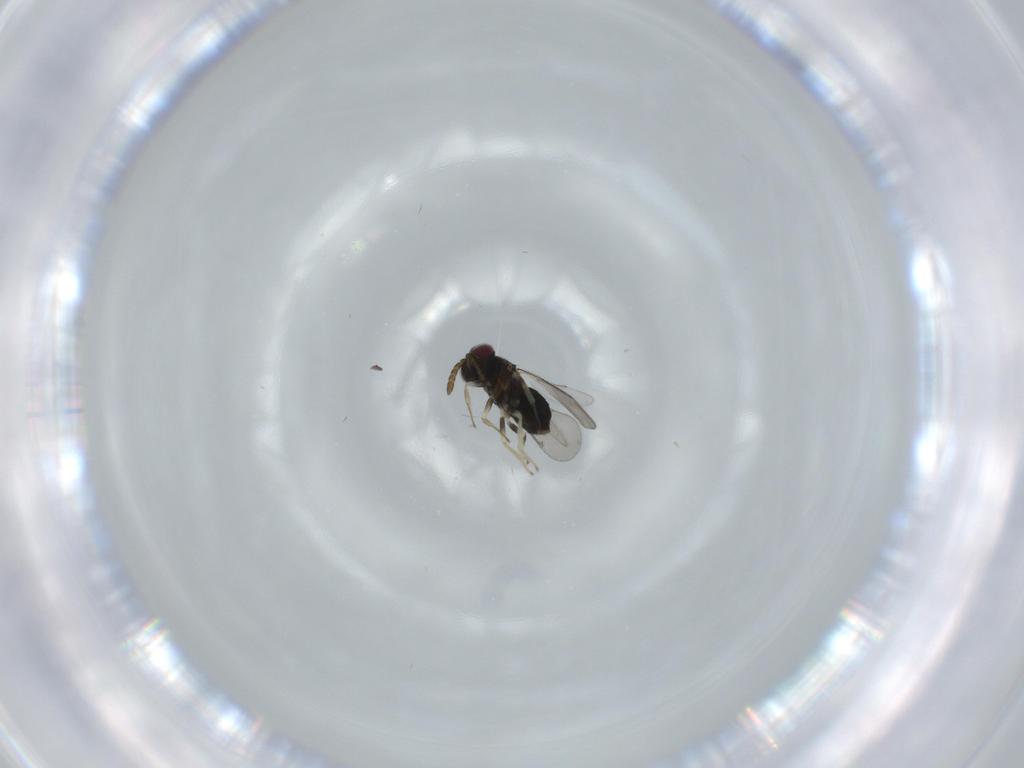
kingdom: Animalia
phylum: Arthropoda
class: Insecta
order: Hymenoptera
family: Aphelinidae
